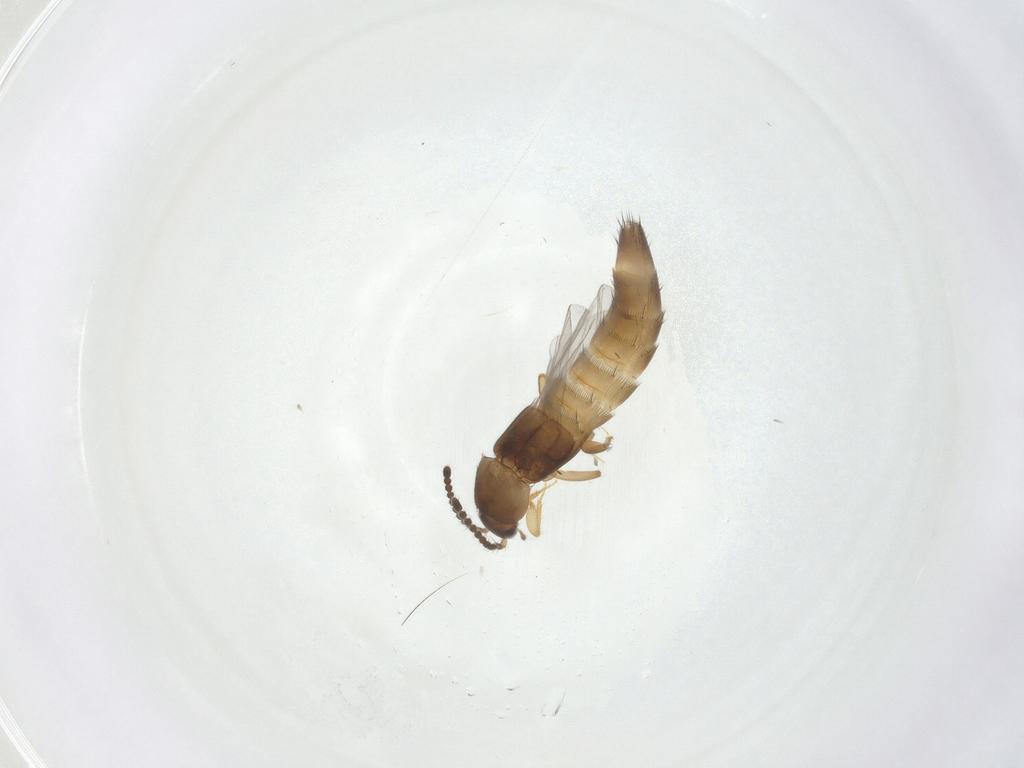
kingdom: Animalia
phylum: Arthropoda
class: Insecta
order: Coleoptera
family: Staphylinidae
